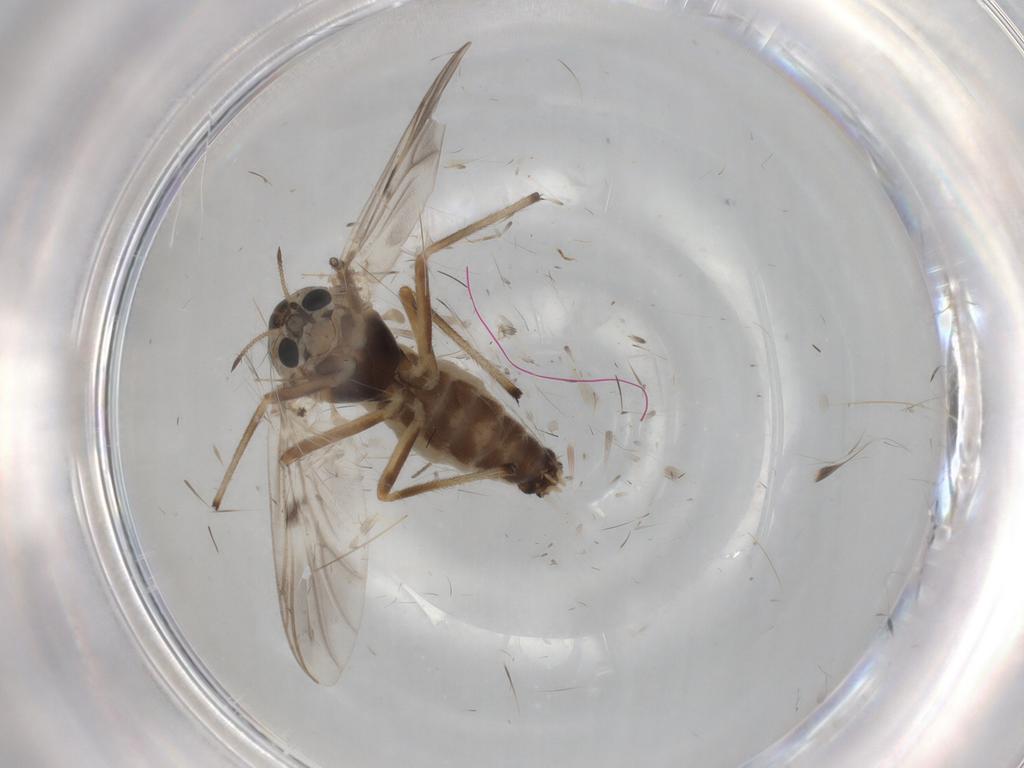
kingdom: Animalia
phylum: Arthropoda
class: Insecta
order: Diptera
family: Chironomidae
